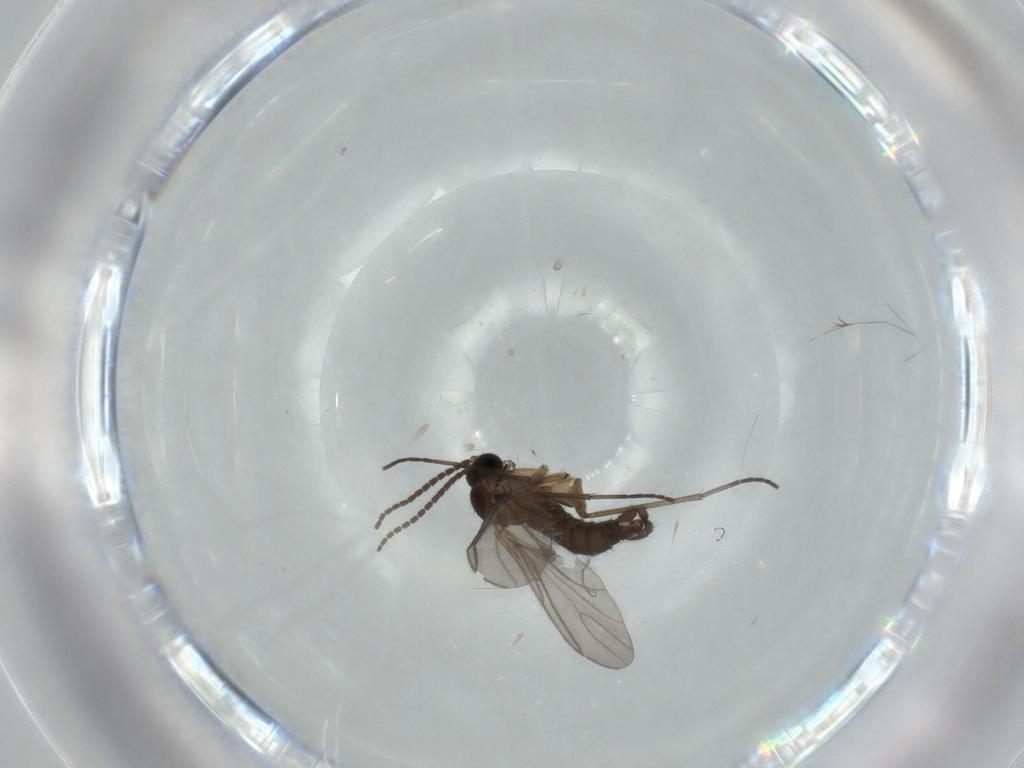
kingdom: Animalia
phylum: Arthropoda
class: Insecta
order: Diptera
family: Sciaridae
